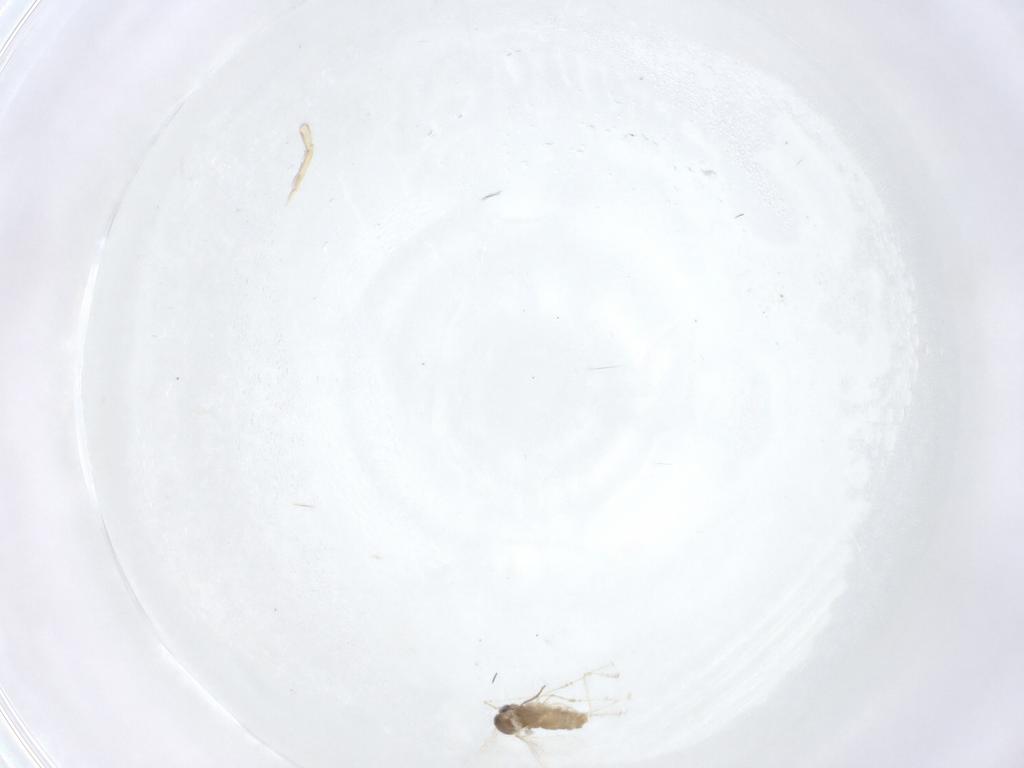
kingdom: Animalia
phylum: Arthropoda
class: Insecta
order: Diptera
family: Cecidomyiidae
